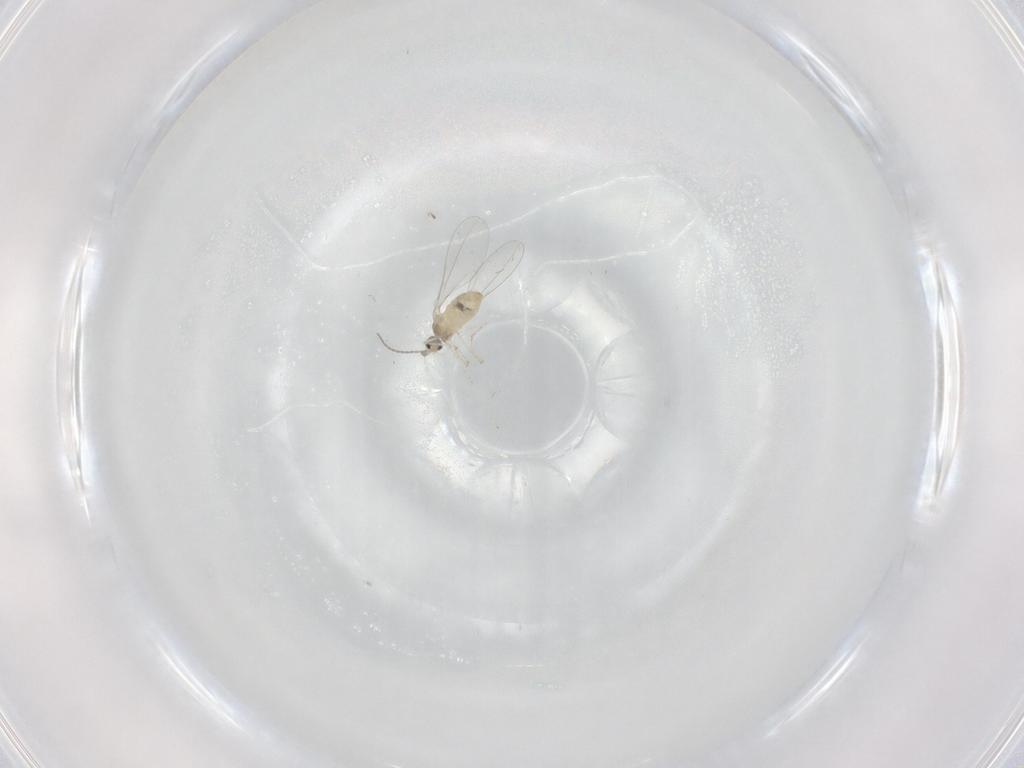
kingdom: Animalia
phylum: Arthropoda
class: Insecta
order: Diptera
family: Cecidomyiidae
